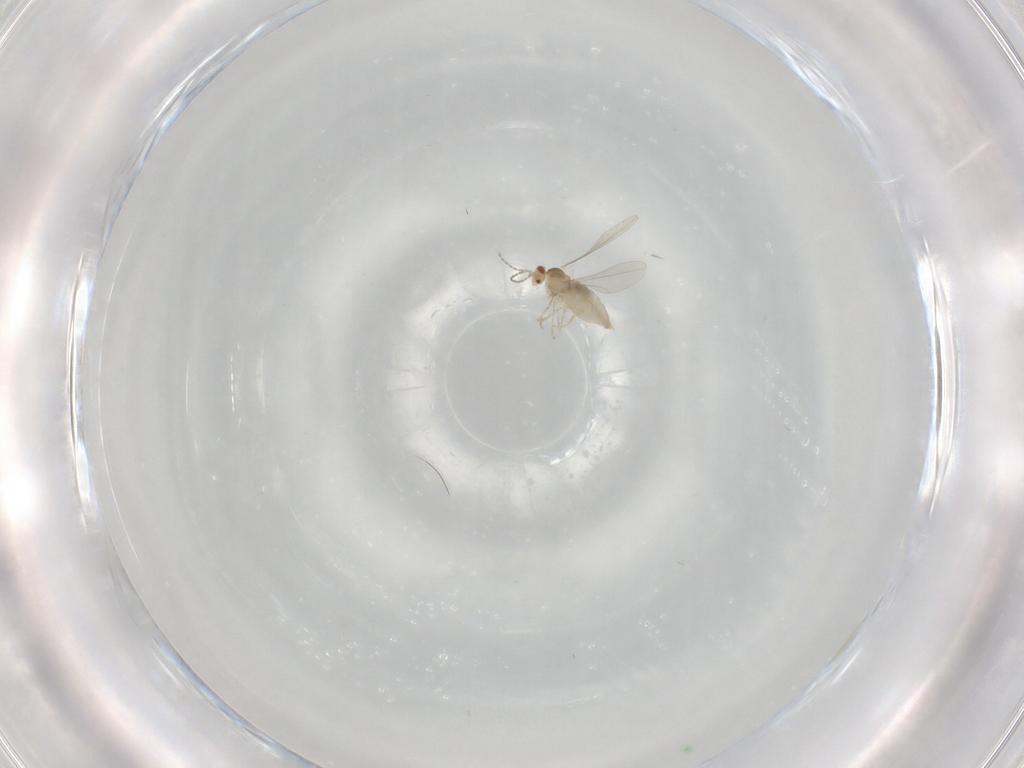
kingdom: Animalia
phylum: Arthropoda
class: Insecta
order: Diptera
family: Cecidomyiidae
